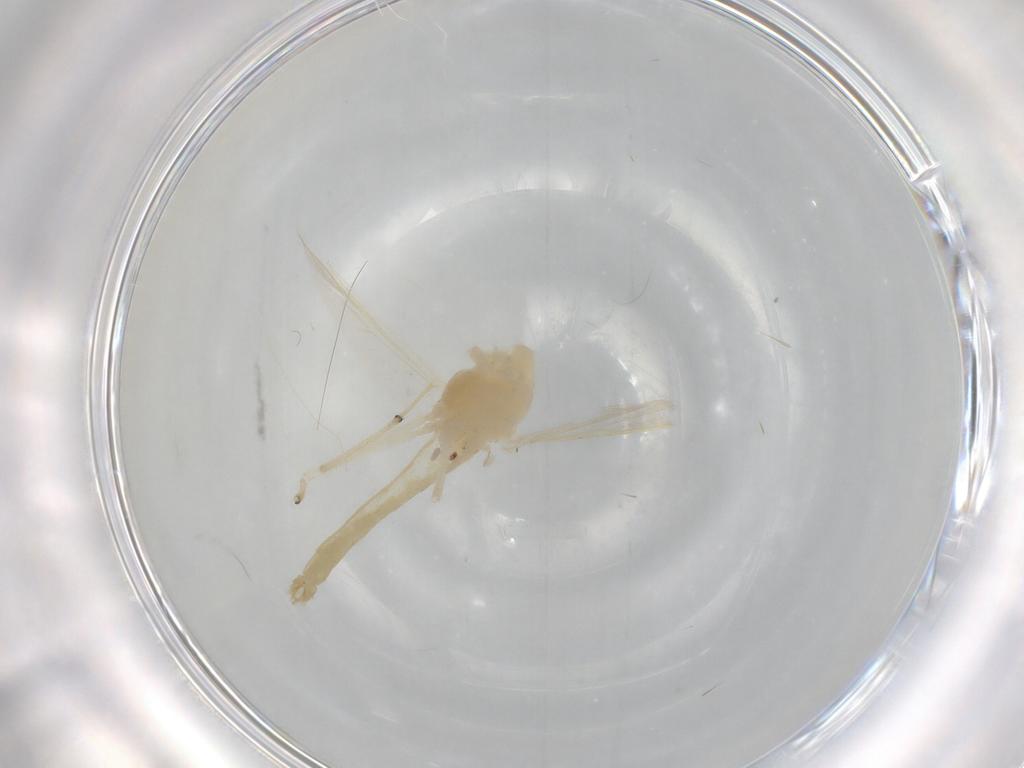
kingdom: Animalia
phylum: Arthropoda
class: Insecta
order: Diptera
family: Chironomidae
